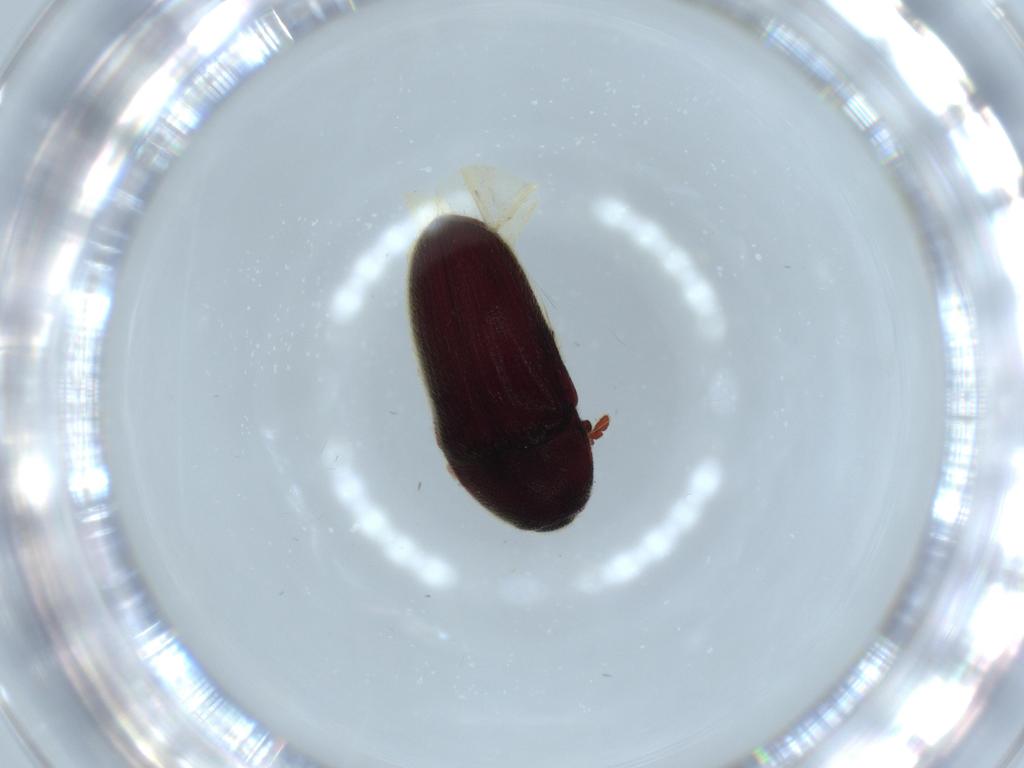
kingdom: Animalia
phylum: Arthropoda
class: Insecta
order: Coleoptera
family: Throscidae
